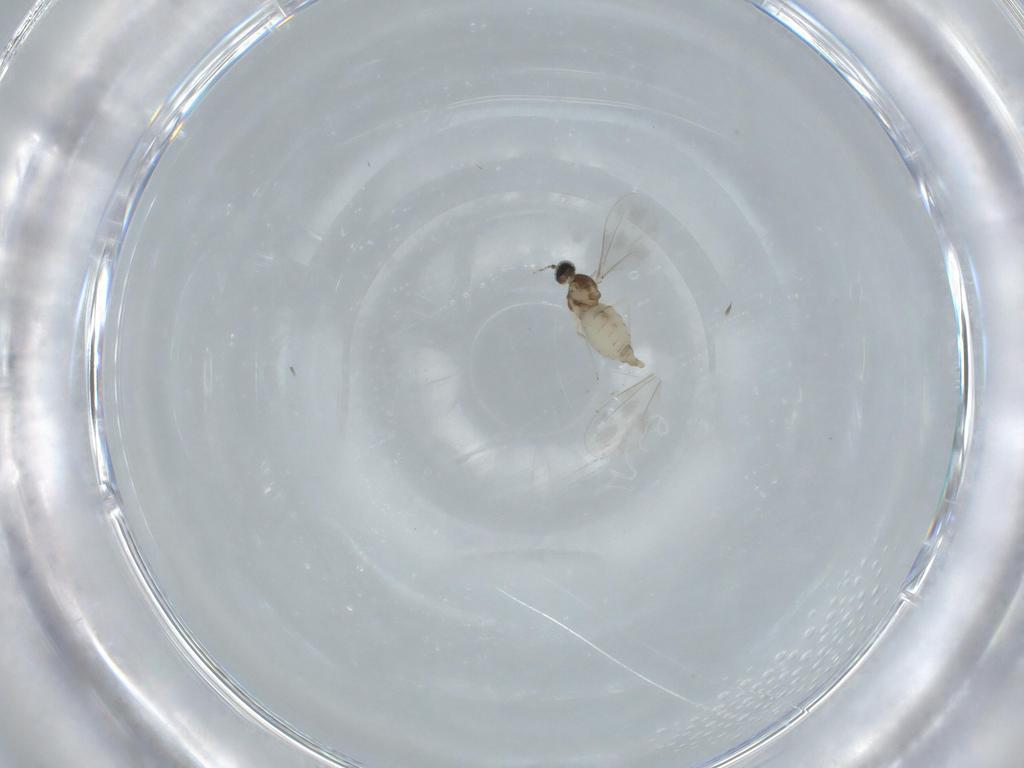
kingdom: Animalia
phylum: Arthropoda
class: Insecta
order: Diptera
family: Cecidomyiidae
